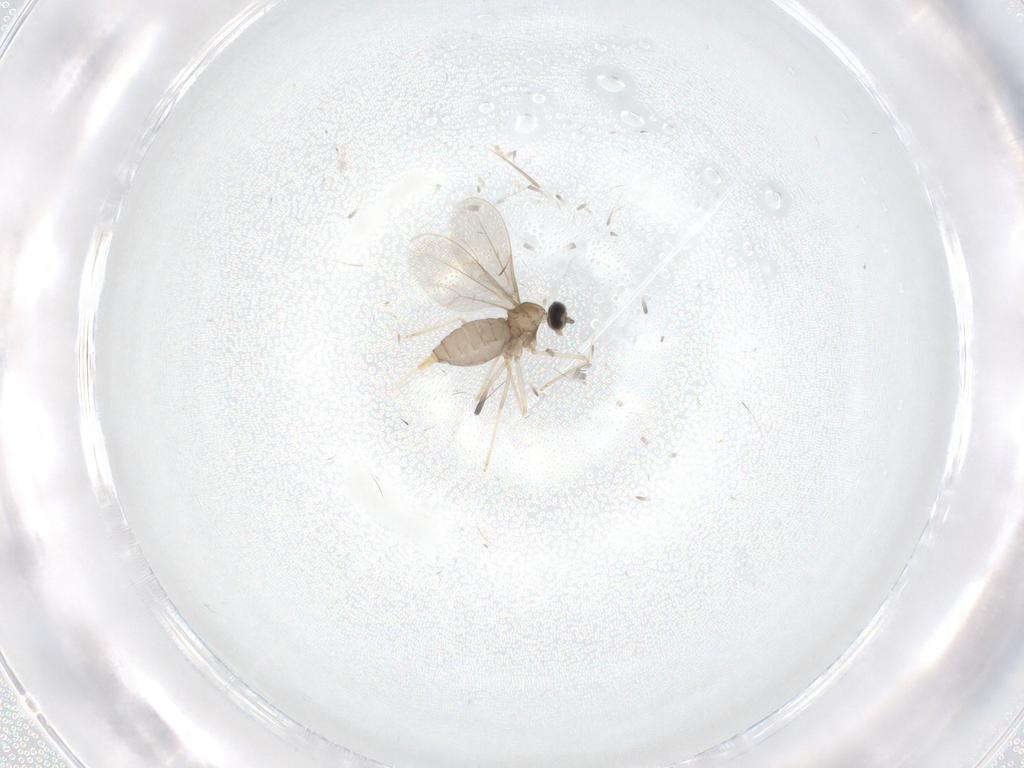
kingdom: Animalia
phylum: Arthropoda
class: Insecta
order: Diptera
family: Cecidomyiidae
